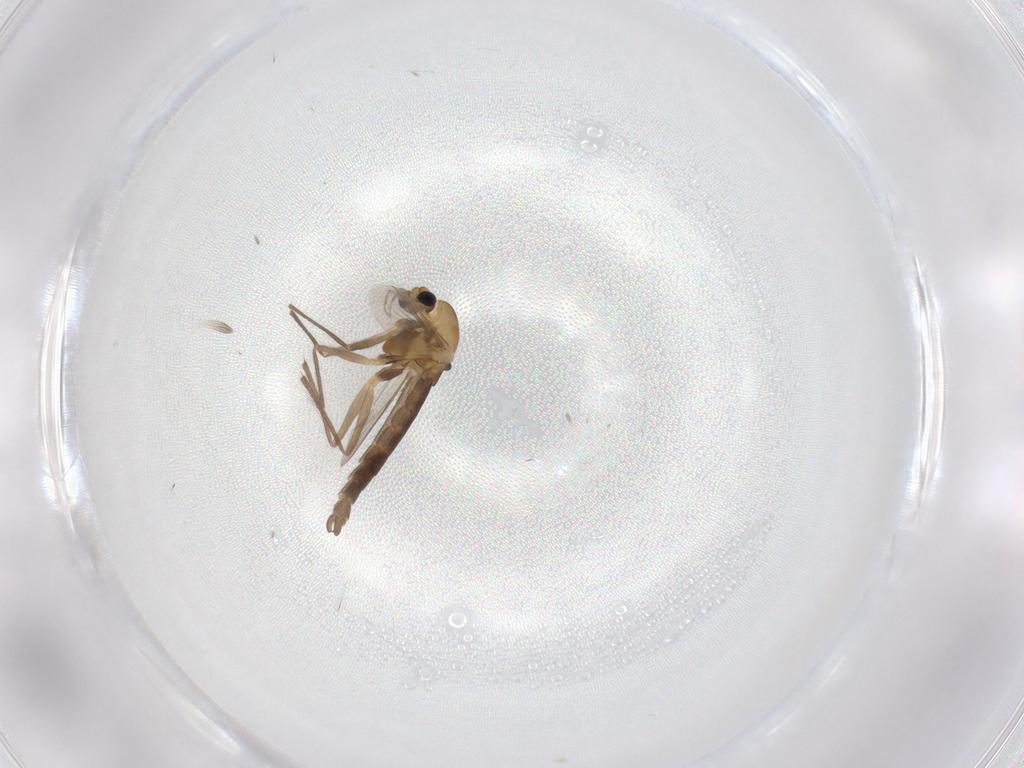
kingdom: Animalia
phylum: Arthropoda
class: Insecta
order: Diptera
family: Chironomidae
